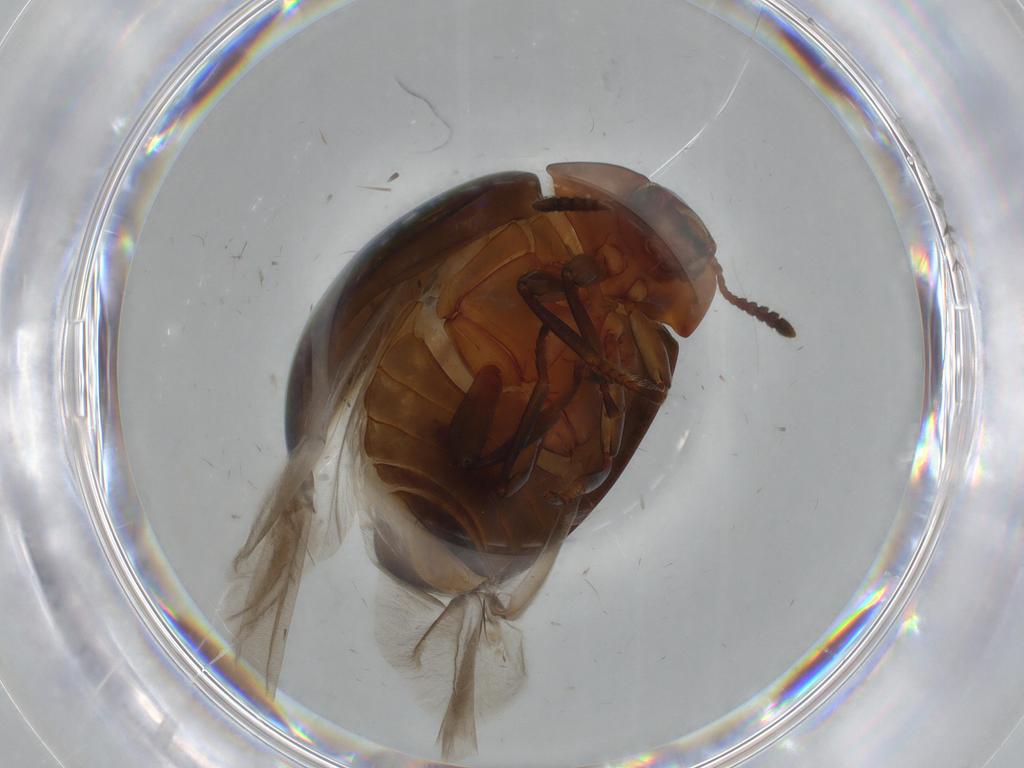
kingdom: Animalia
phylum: Arthropoda
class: Insecta
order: Coleoptera
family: Tenebrionidae
